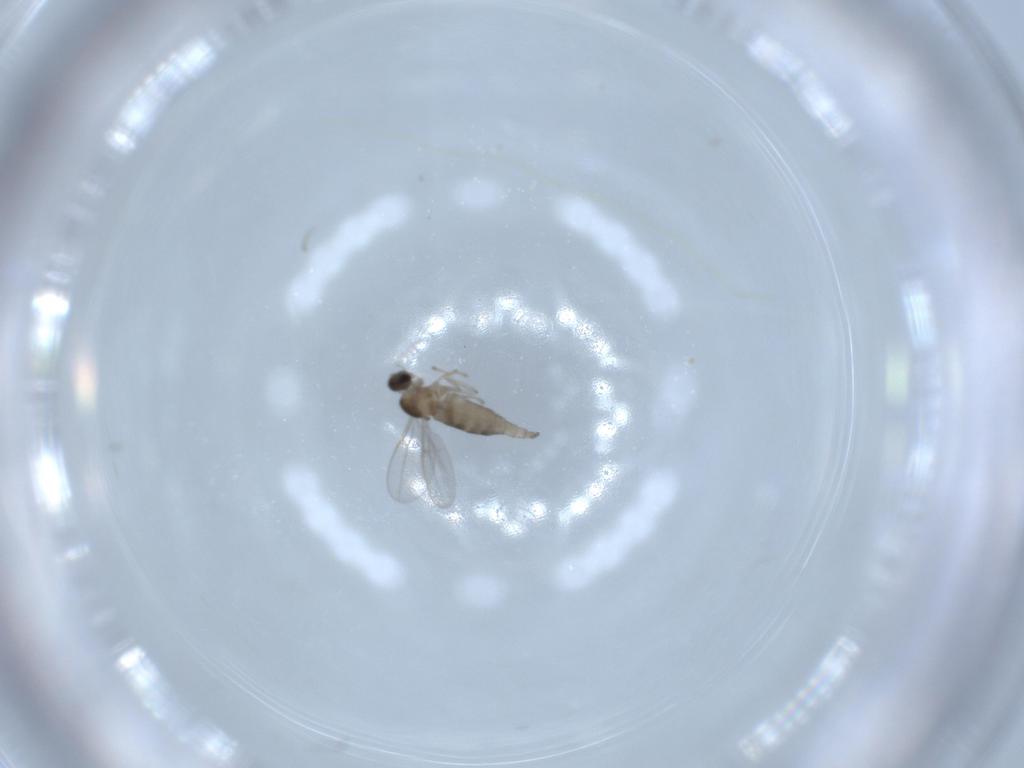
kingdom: Animalia
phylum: Arthropoda
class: Insecta
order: Diptera
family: Cecidomyiidae
